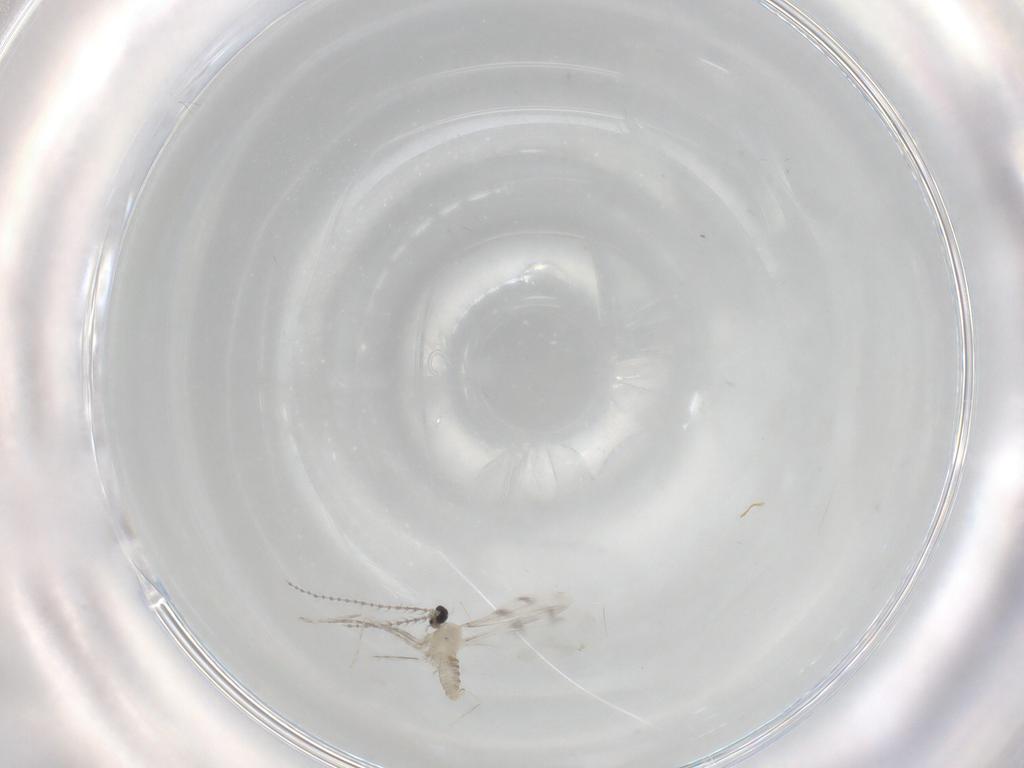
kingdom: Animalia
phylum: Arthropoda
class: Insecta
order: Diptera
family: Cecidomyiidae
